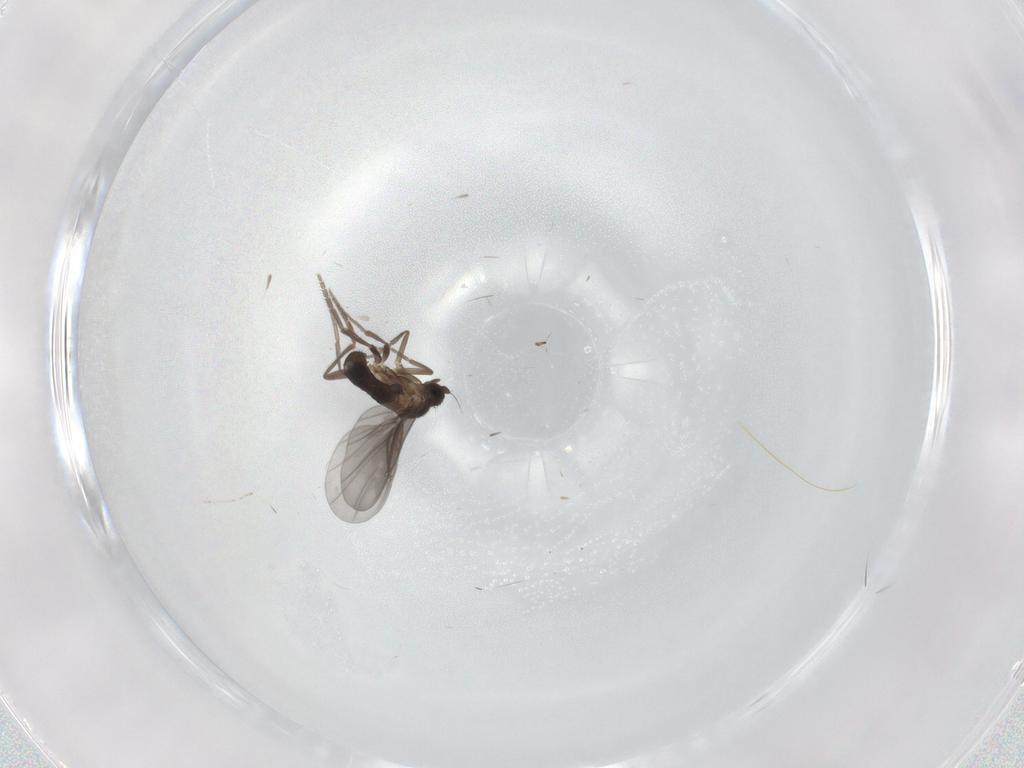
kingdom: Animalia
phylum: Arthropoda
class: Insecta
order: Diptera
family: Phoridae
